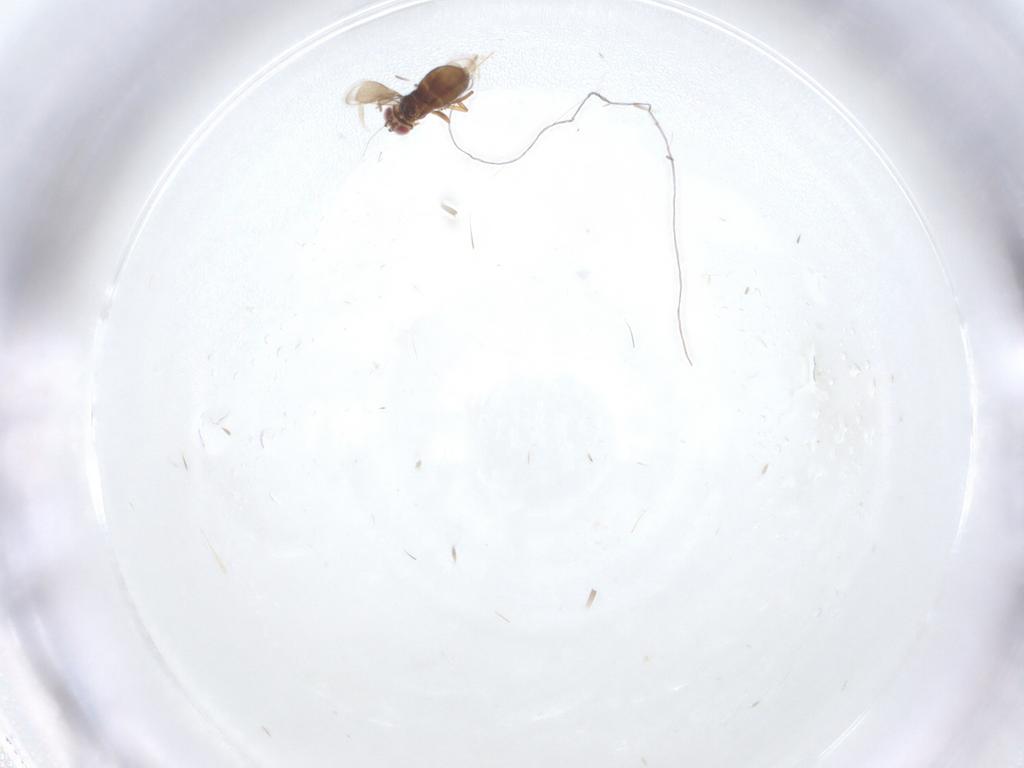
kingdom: Animalia
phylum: Arthropoda
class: Insecta
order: Hymenoptera
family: Azotidae
